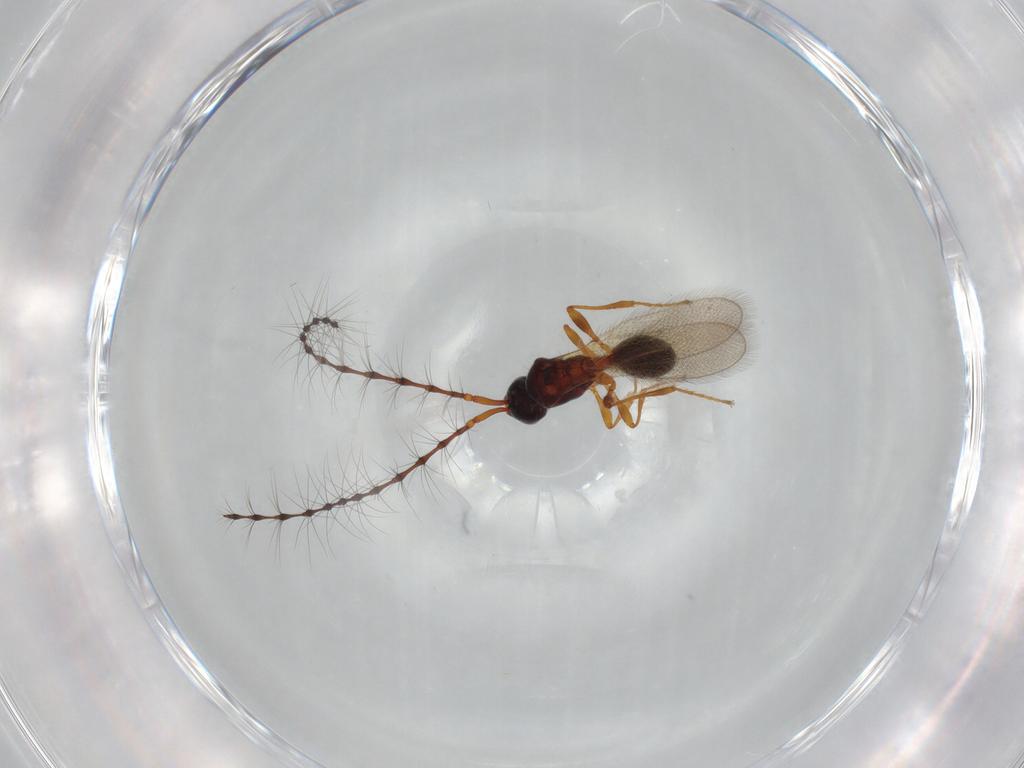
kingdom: Animalia
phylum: Arthropoda
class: Insecta
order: Hymenoptera
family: Diapriidae
